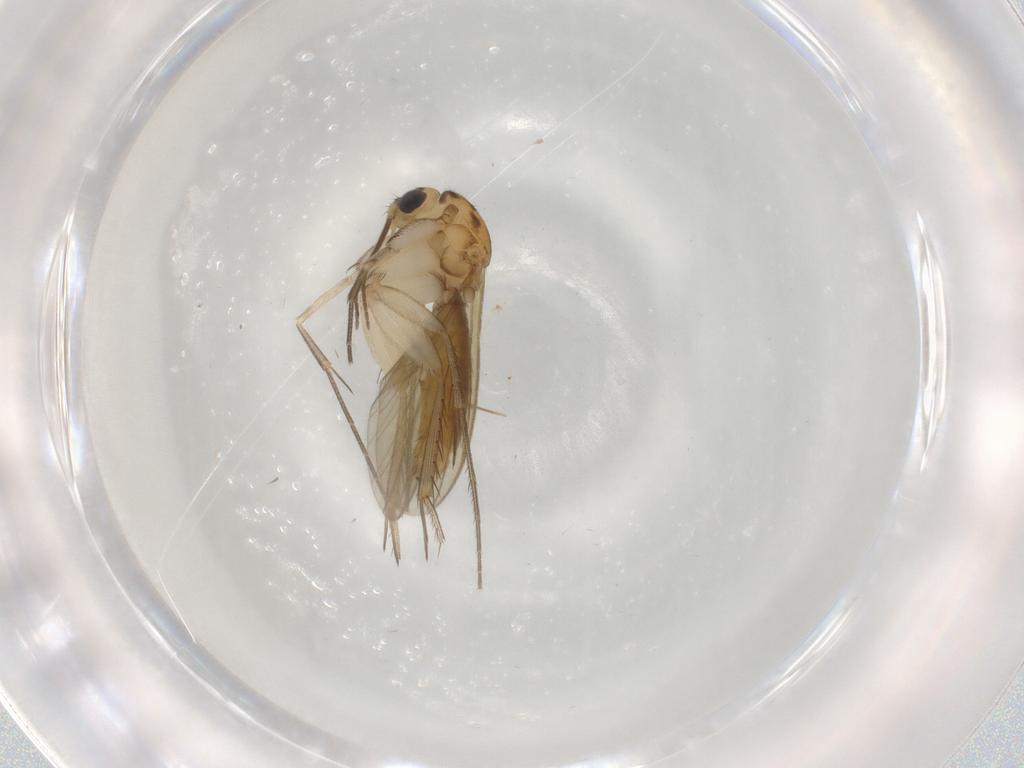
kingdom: Animalia
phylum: Arthropoda
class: Insecta
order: Diptera
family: Mycetophilidae
